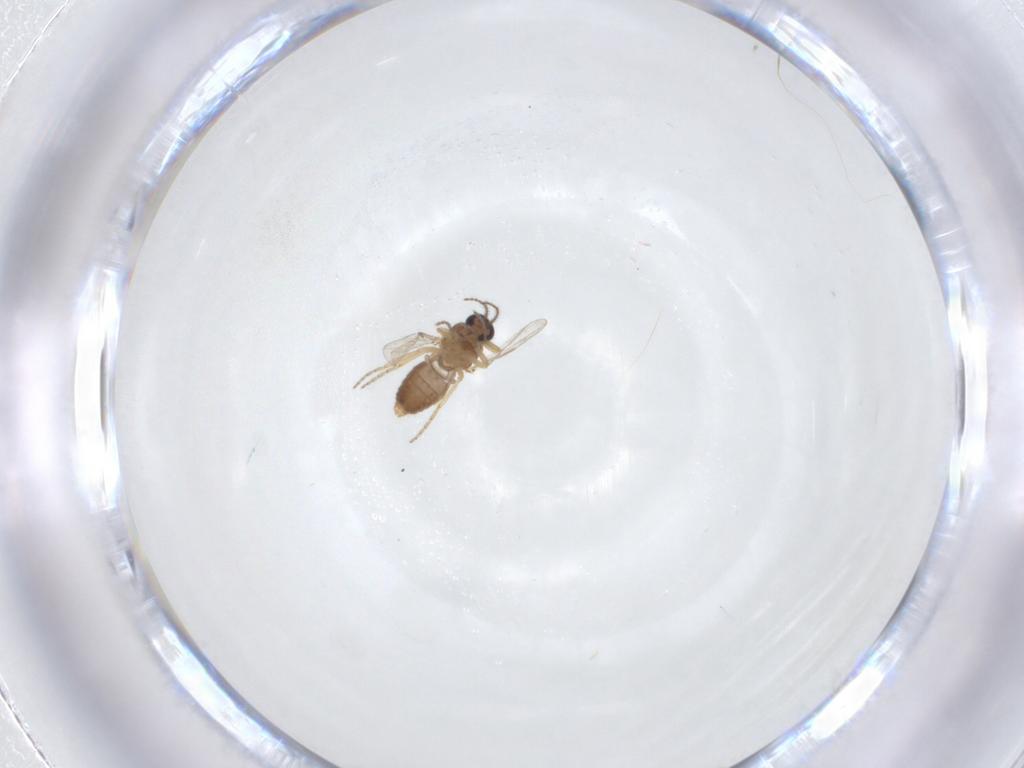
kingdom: Animalia
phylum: Arthropoda
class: Insecta
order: Diptera
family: Ceratopogonidae
